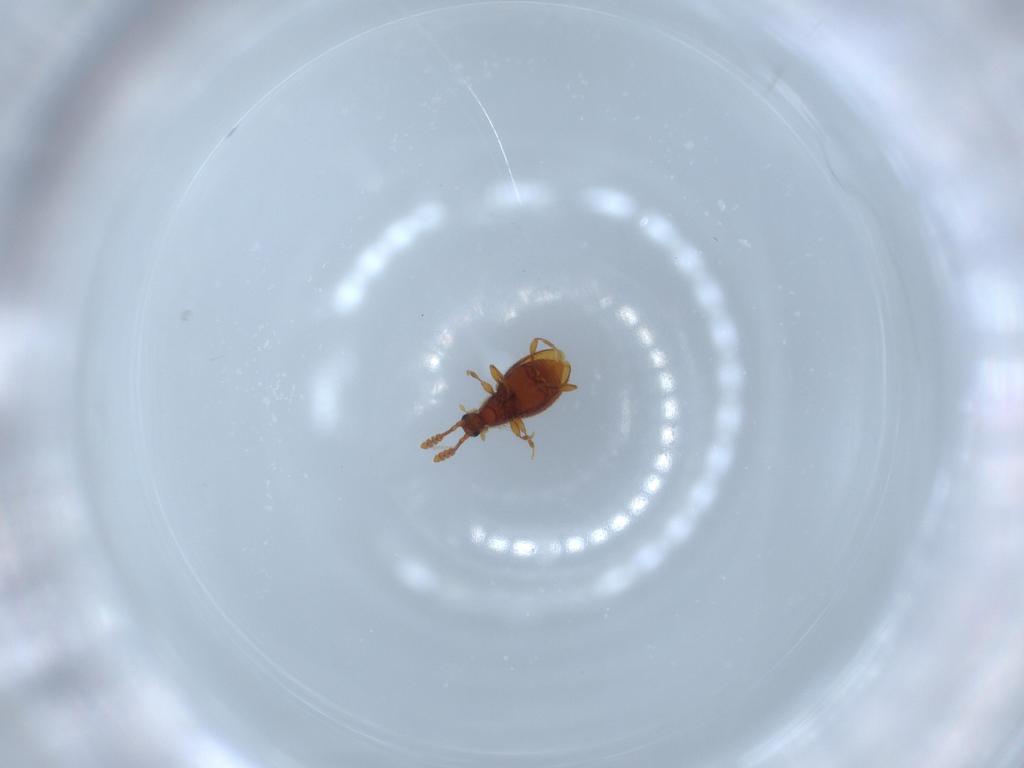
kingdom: Animalia
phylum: Arthropoda
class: Insecta
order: Coleoptera
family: Staphylinidae
